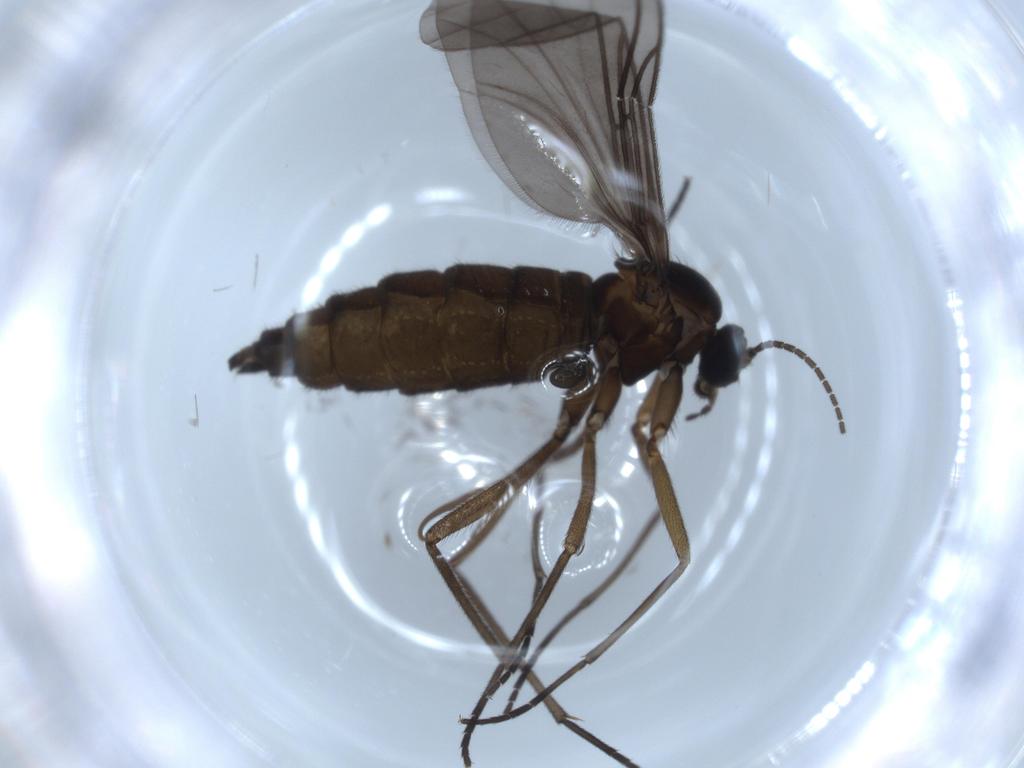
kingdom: Animalia
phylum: Arthropoda
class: Insecta
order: Diptera
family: Sciaridae
